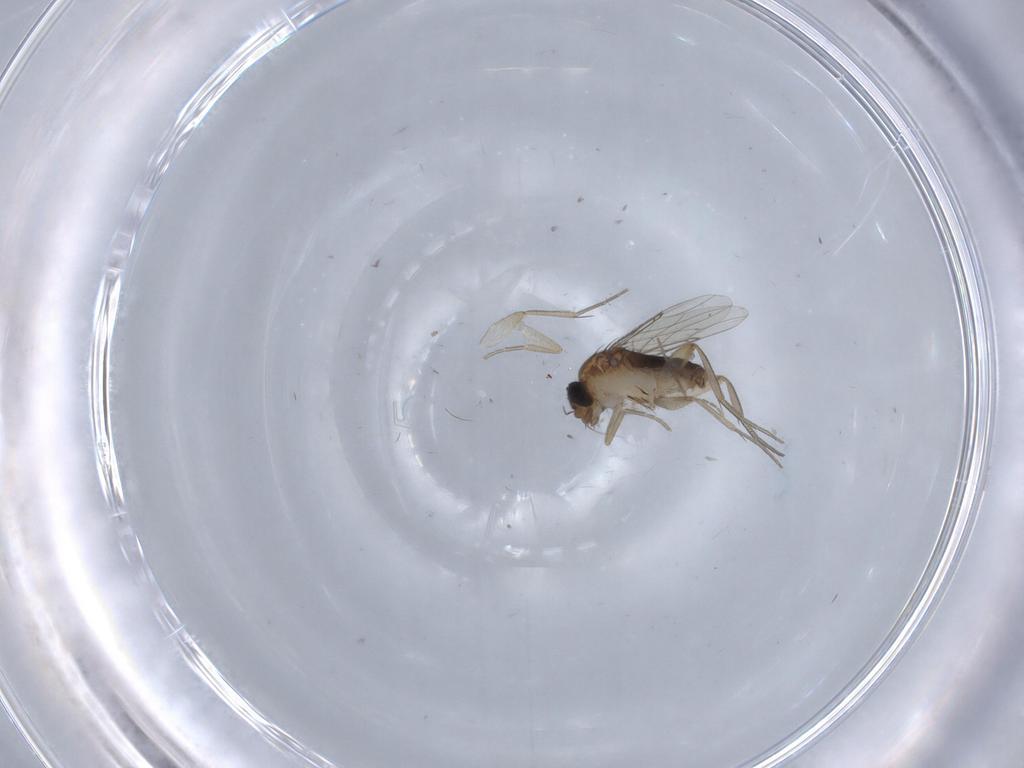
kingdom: Animalia
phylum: Arthropoda
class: Insecta
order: Diptera
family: Phoridae
